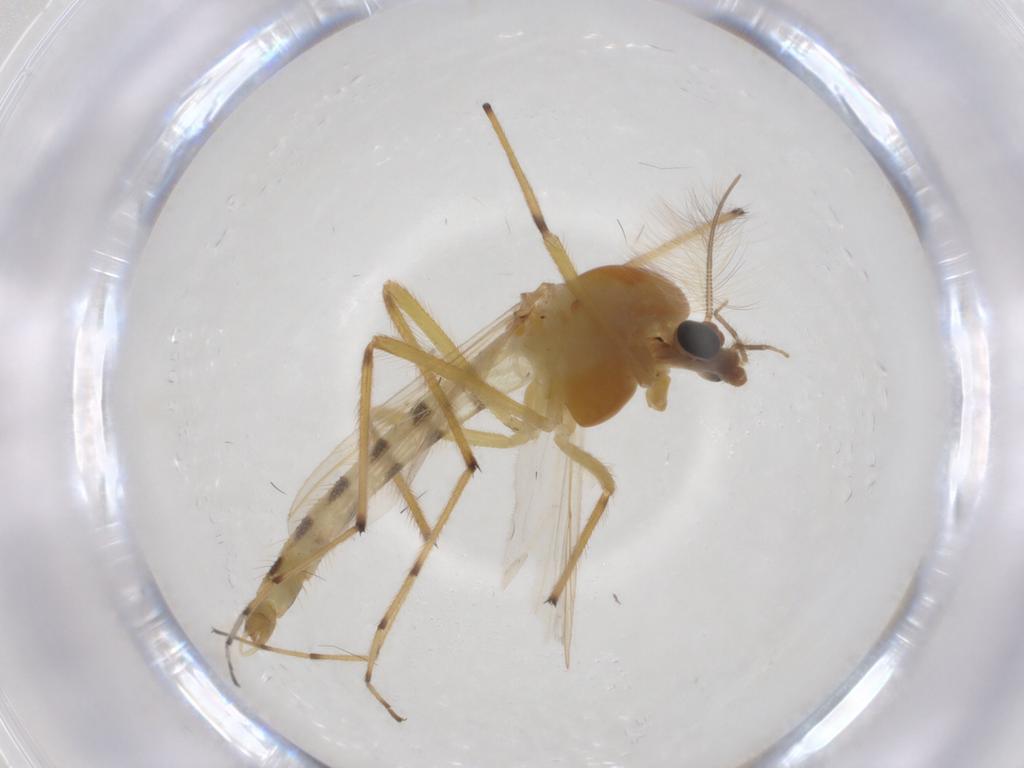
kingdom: Animalia
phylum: Arthropoda
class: Insecta
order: Diptera
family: Chironomidae
